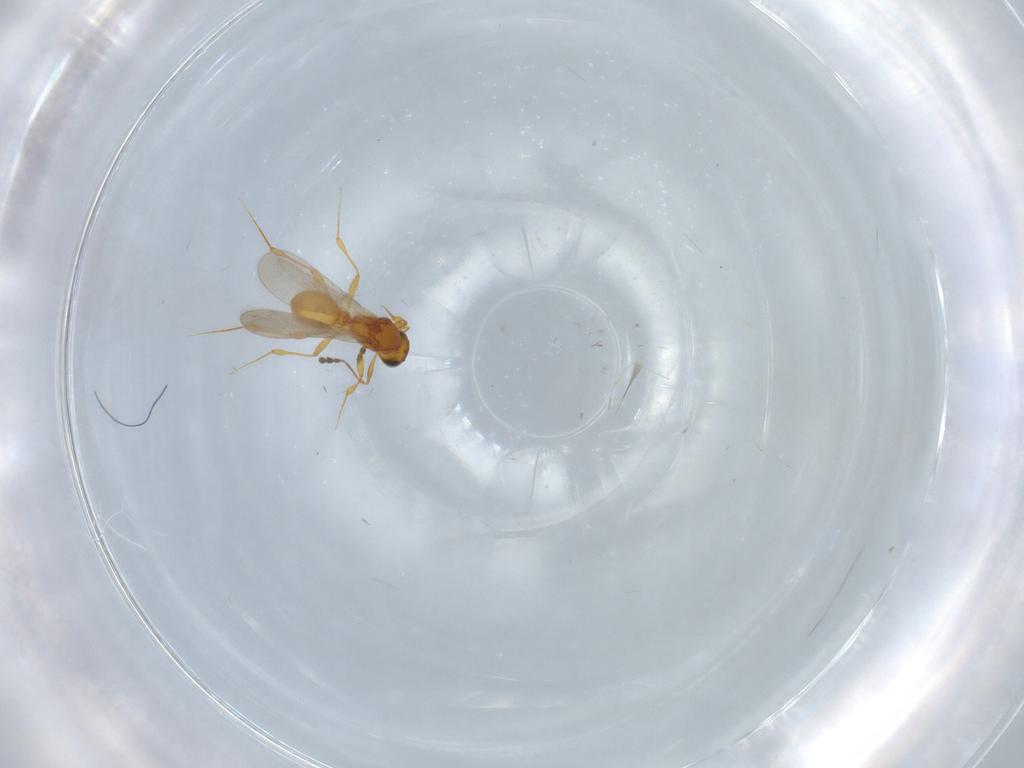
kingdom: Animalia
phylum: Arthropoda
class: Insecta
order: Hymenoptera
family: Platygastridae
